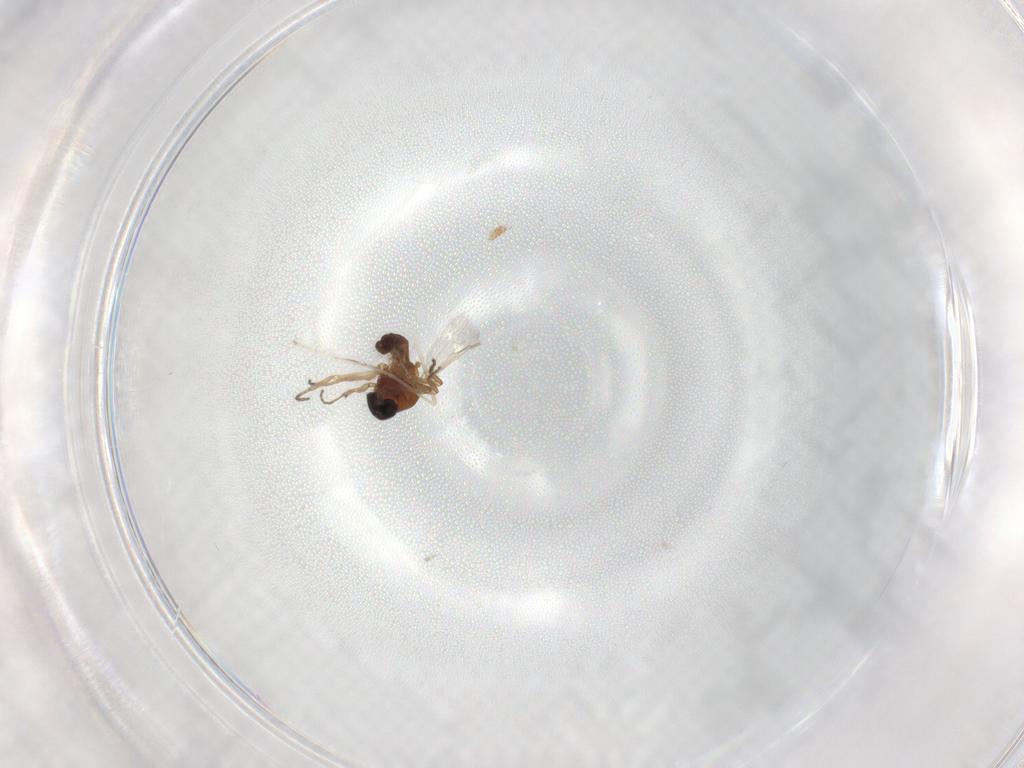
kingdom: Animalia
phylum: Arthropoda
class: Insecta
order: Diptera
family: Ceratopogonidae
